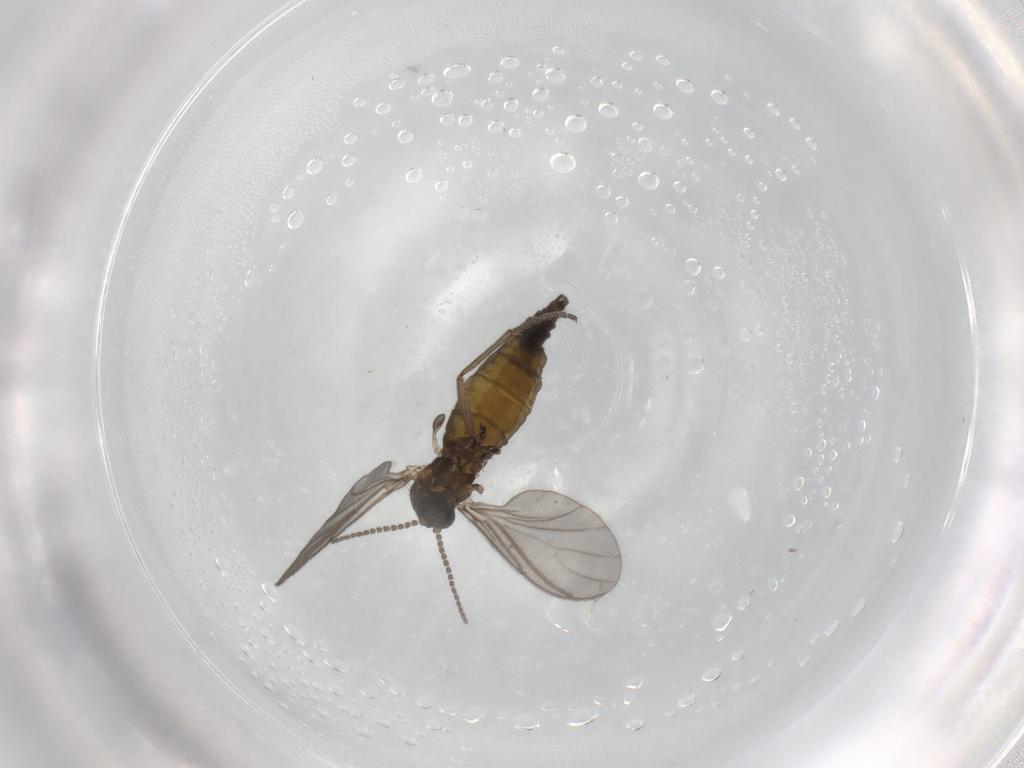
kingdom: Animalia
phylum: Arthropoda
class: Insecta
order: Diptera
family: Sciaridae
